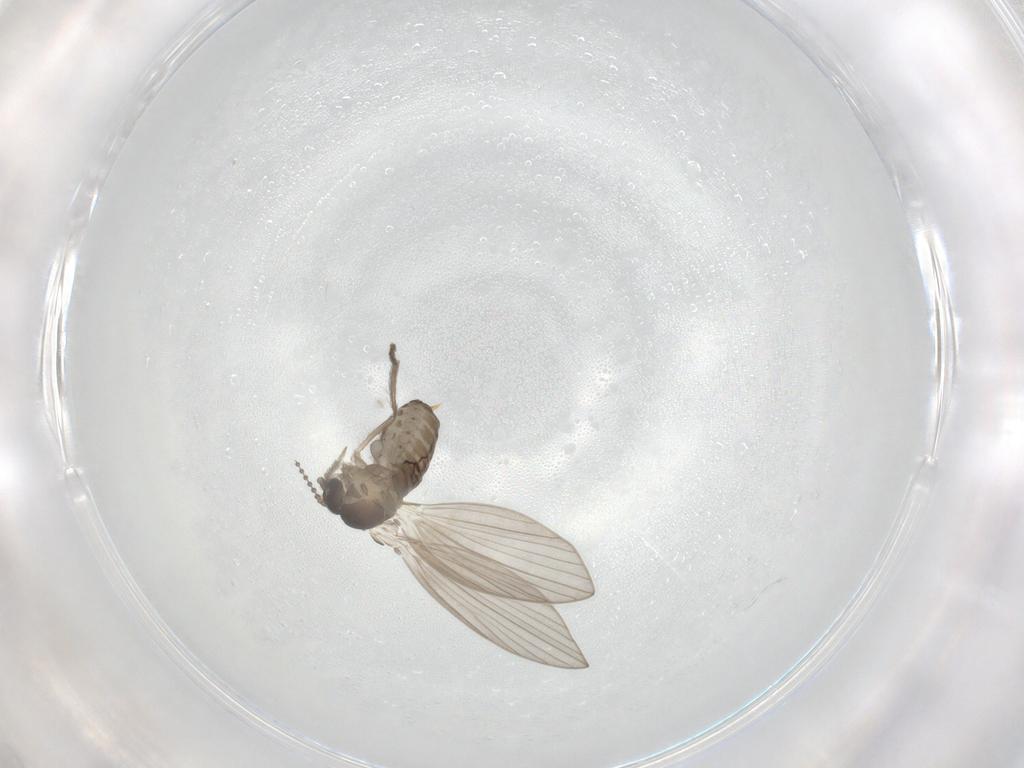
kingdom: Animalia
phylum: Arthropoda
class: Insecta
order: Diptera
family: Psychodidae
